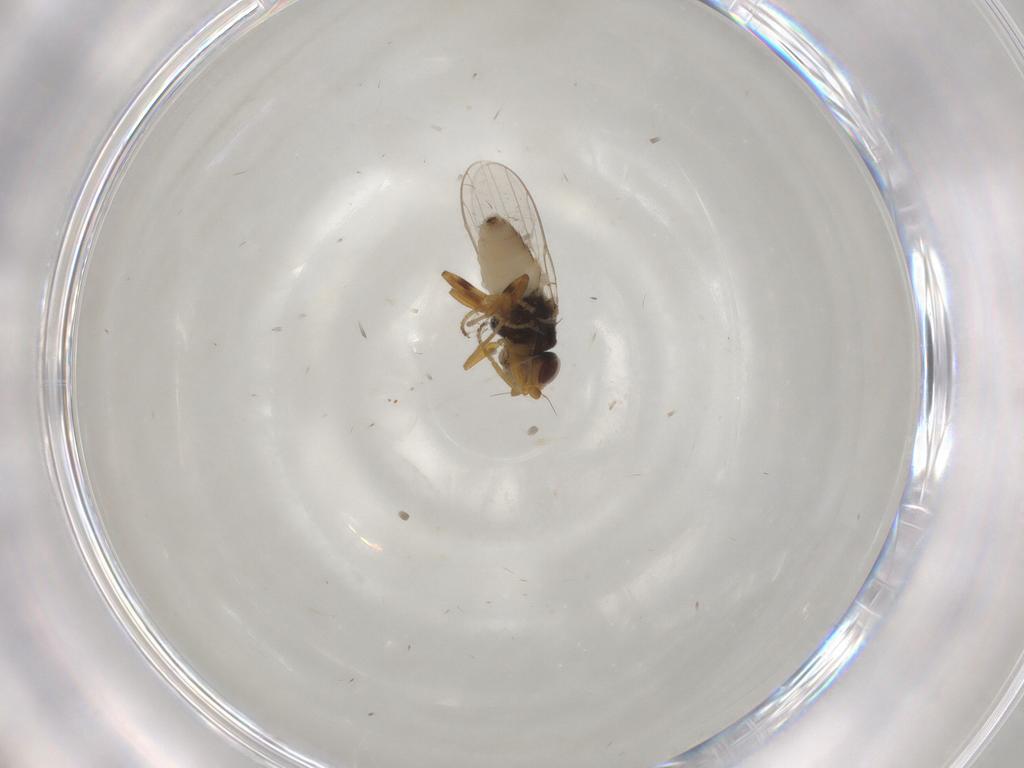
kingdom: Animalia
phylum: Arthropoda
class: Insecta
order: Diptera
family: Chloropidae
